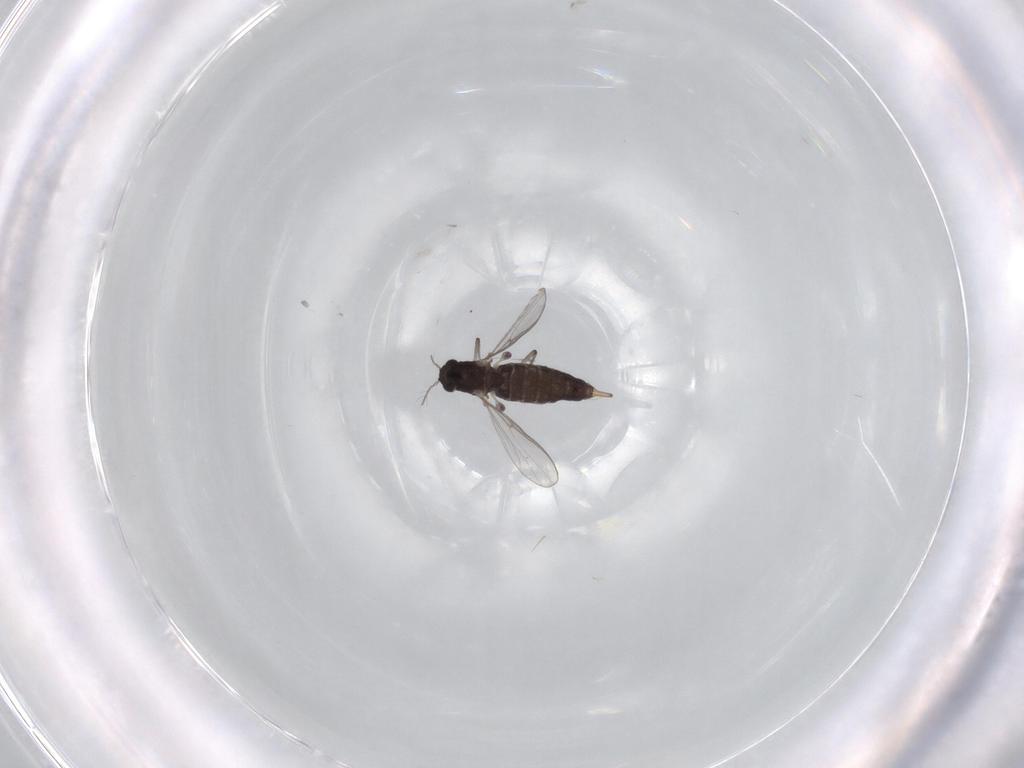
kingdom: Animalia
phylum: Arthropoda
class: Insecta
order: Diptera
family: Chironomidae
